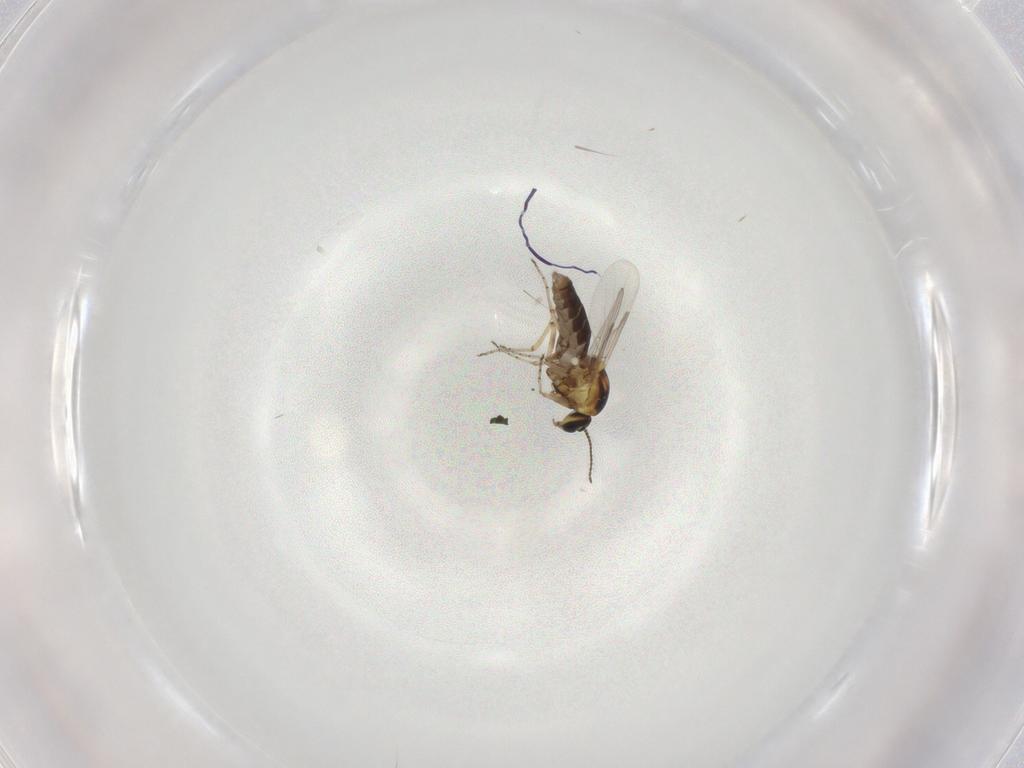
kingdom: Animalia
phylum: Arthropoda
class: Insecta
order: Diptera
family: Ceratopogonidae
